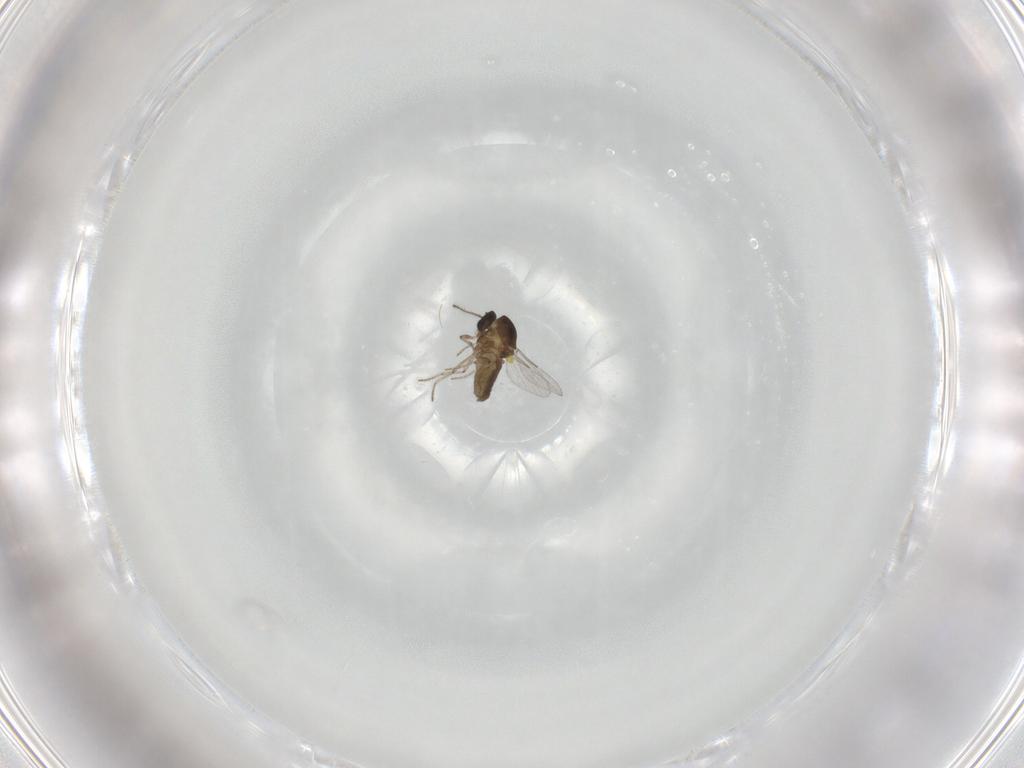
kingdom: Animalia
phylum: Arthropoda
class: Insecta
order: Diptera
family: Ceratopogonidae
